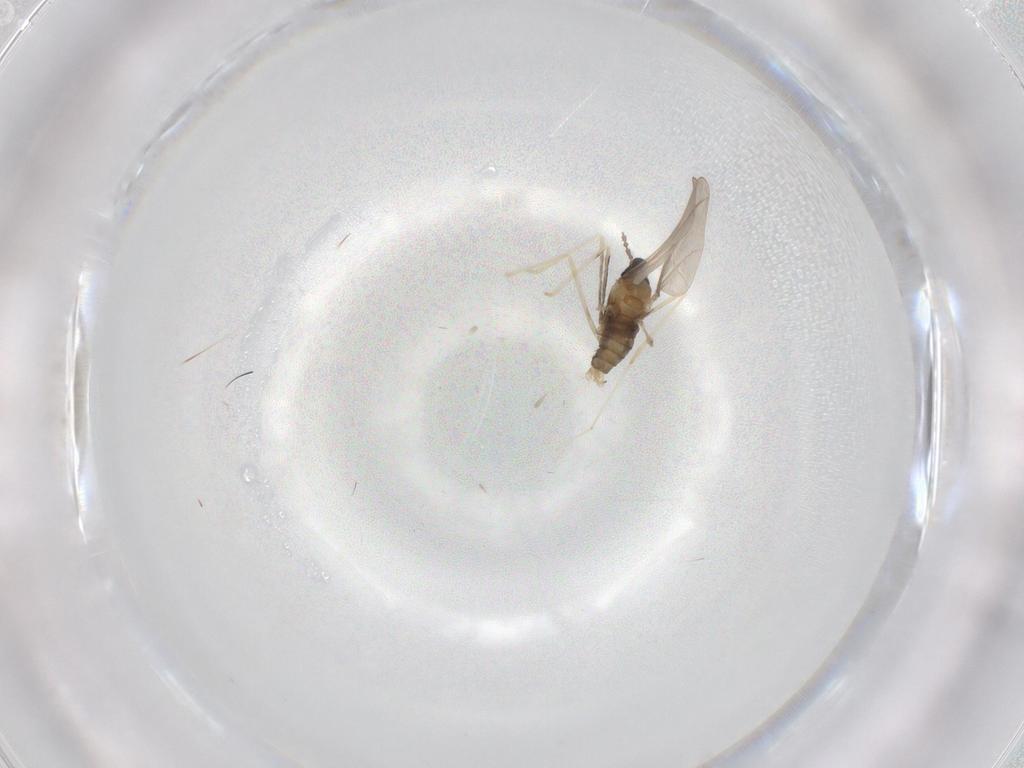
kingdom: Animalia
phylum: Arthropoda
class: Insecta
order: Diptera
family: Cecidomyiidae
